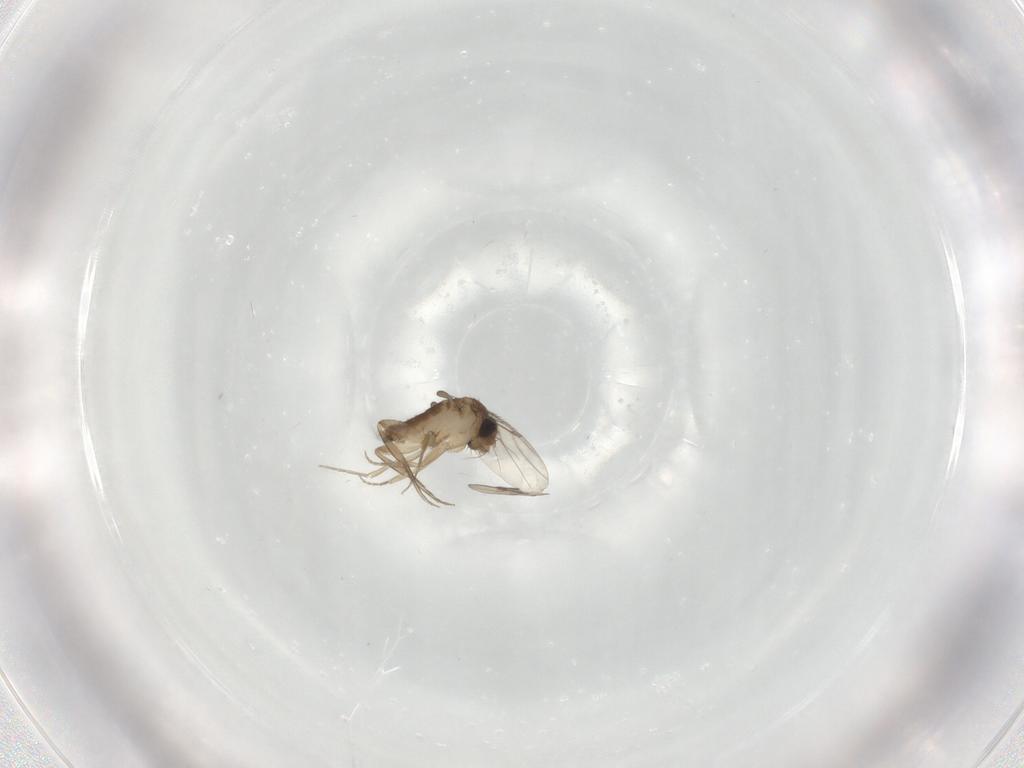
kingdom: Animalia
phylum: Arthropoda
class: Insecta
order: Diptera
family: Phoridae
